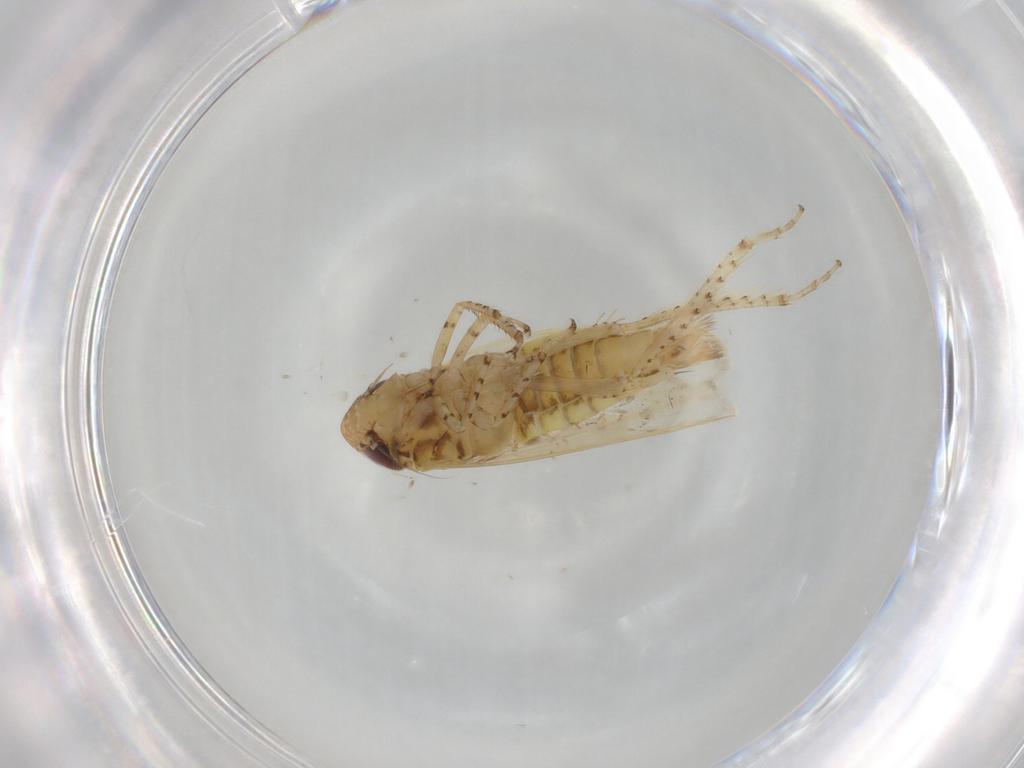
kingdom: Animalia
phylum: Arthropoda
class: Insecta
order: Hemiptera
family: Cicadellidae
